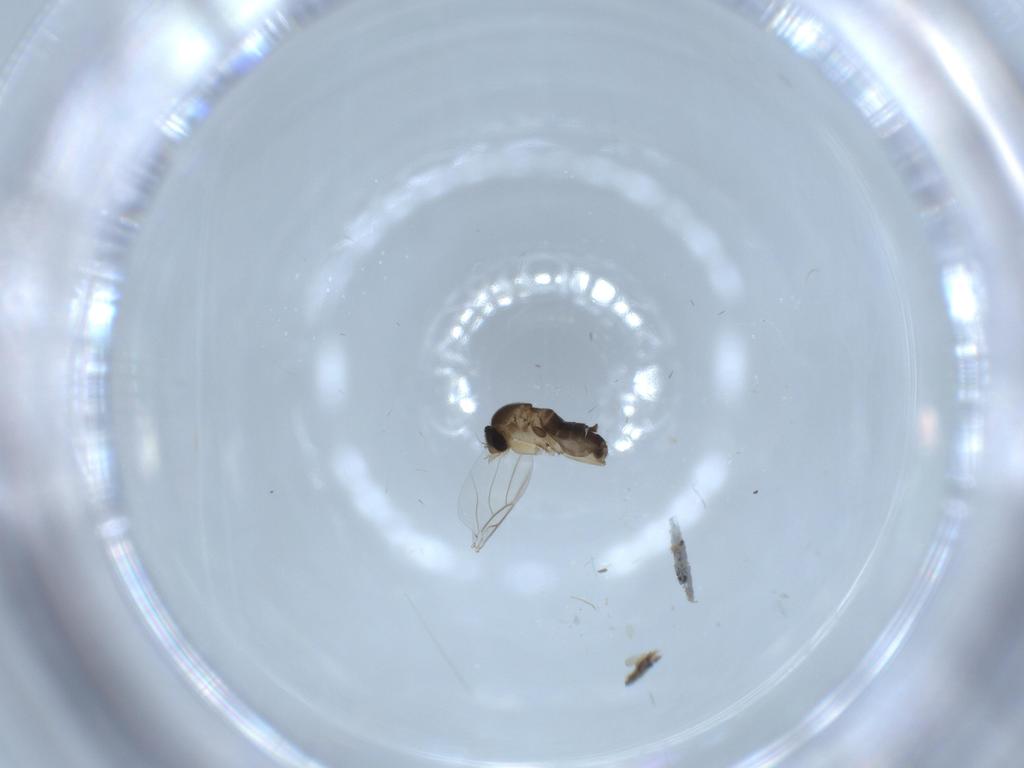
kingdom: Animalia
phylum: Arthropoda
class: Insecta
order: Diptera
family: Phoridae
